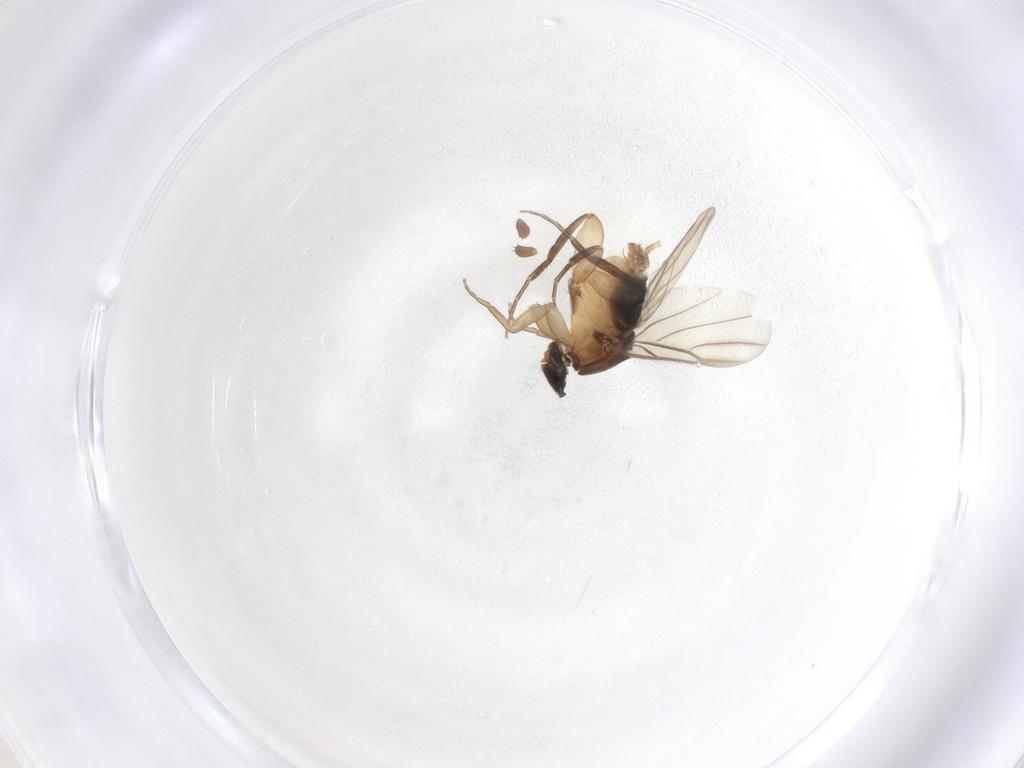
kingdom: Animalia
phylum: Arthropoda
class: Insecta
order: Diptera
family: Phoridae
